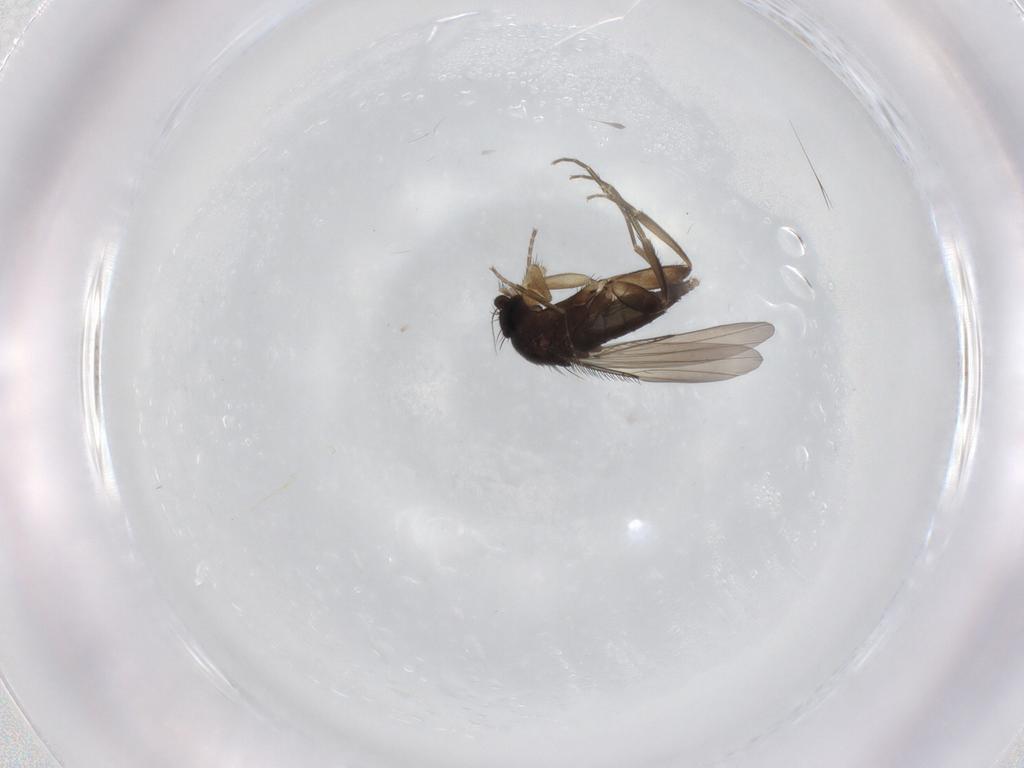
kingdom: Animalia
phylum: Arthropoda
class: Insecta
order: Diptera
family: Phoridae
